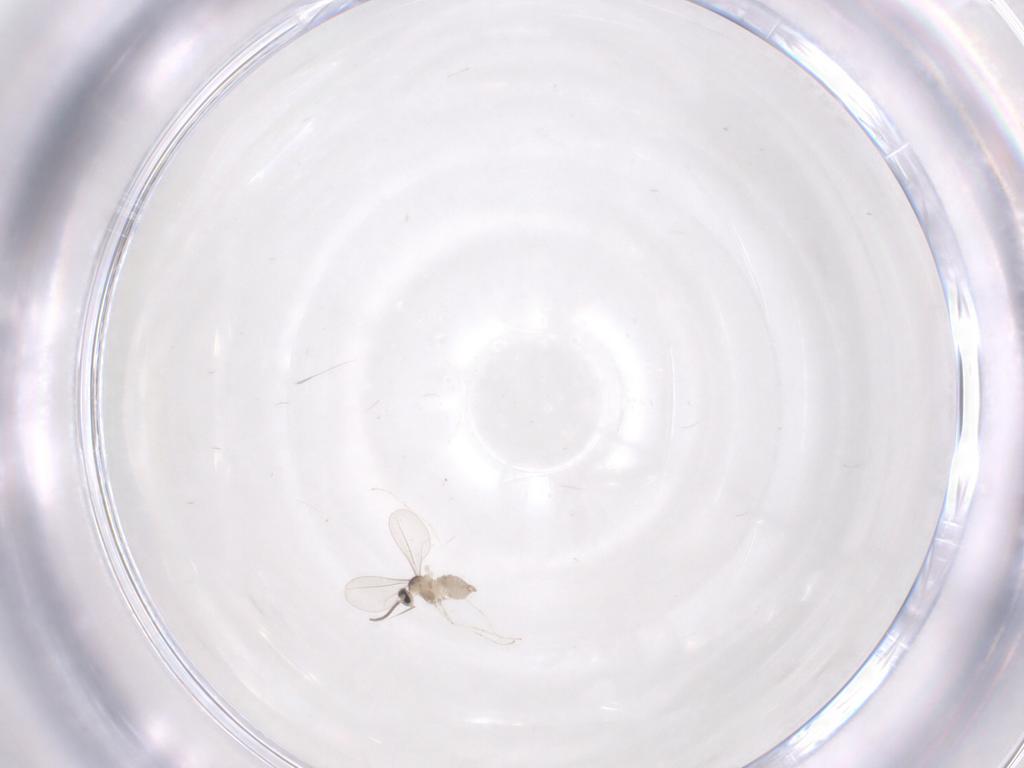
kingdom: Animalia
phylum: Arthropoda
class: Insecta
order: Diptera
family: Cecidomyiidae
